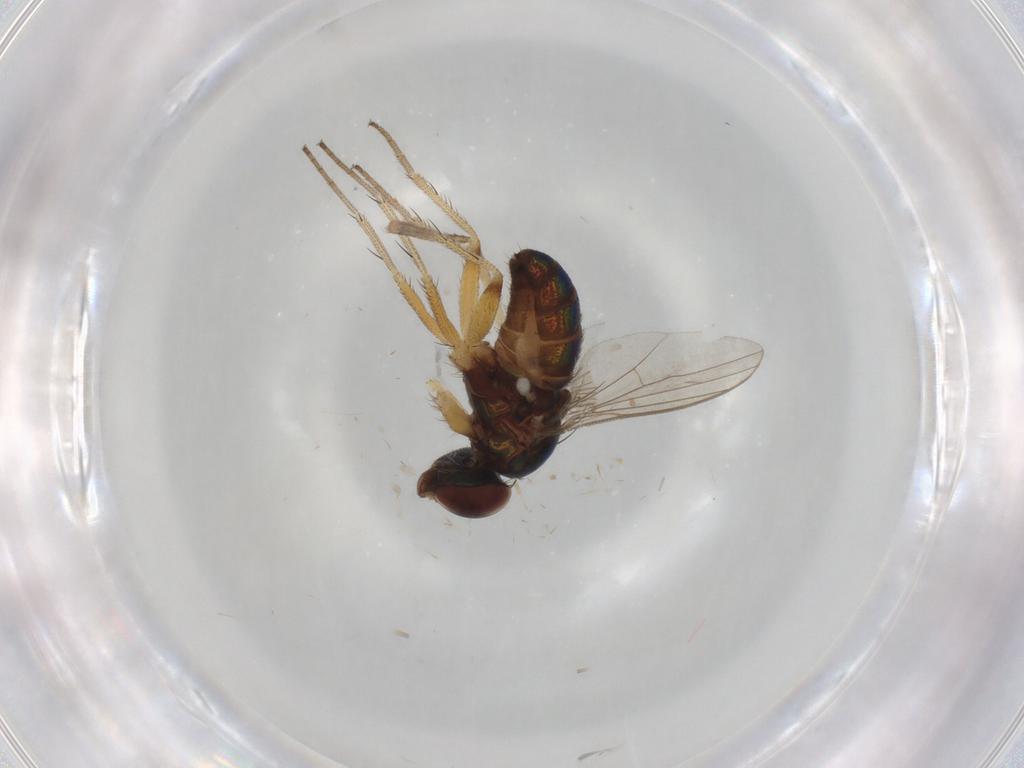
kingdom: Animalia
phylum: Arthropoda
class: Insecta
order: Diptera
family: Culicidae
